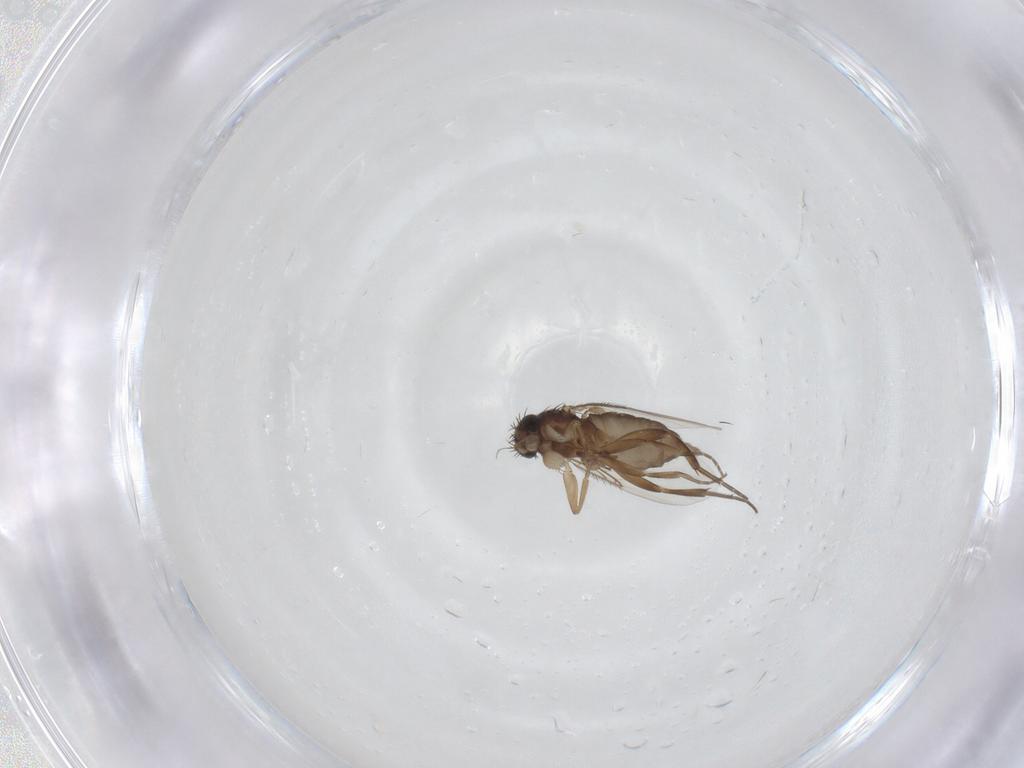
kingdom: Animalia
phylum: Arthropoda
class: Insecta
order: Diptera
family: Phoridae
